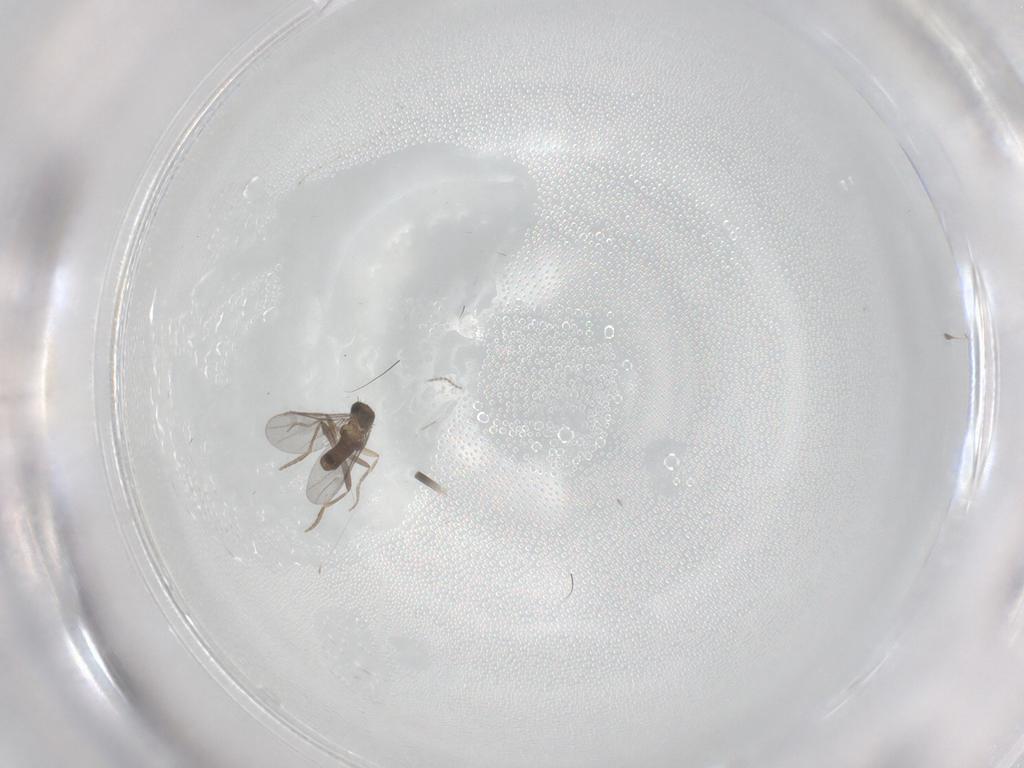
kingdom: Animalia
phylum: Arthropoda
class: Insecta
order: Diptera
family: Ceratopogonidae
